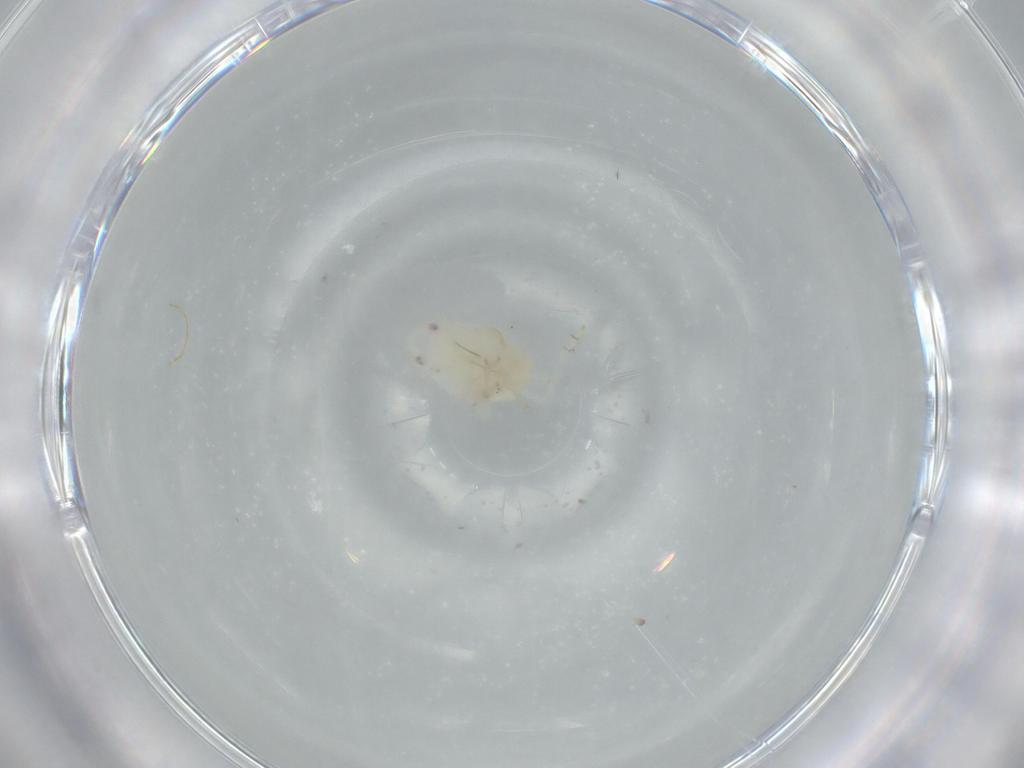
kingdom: Animalia
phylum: Arthropoda
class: Insecta
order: Hemiptera
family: Flatidae
